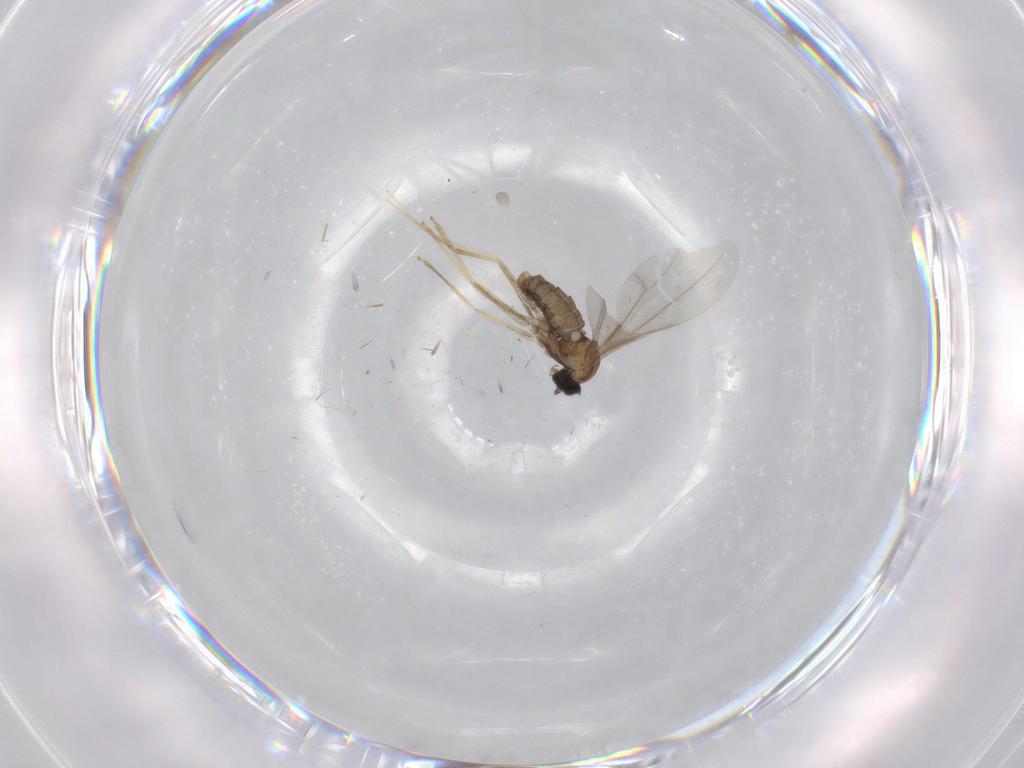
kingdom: Animalia
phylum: Arthropoda
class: Insecta
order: Diptera
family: Cecidomyiidae
